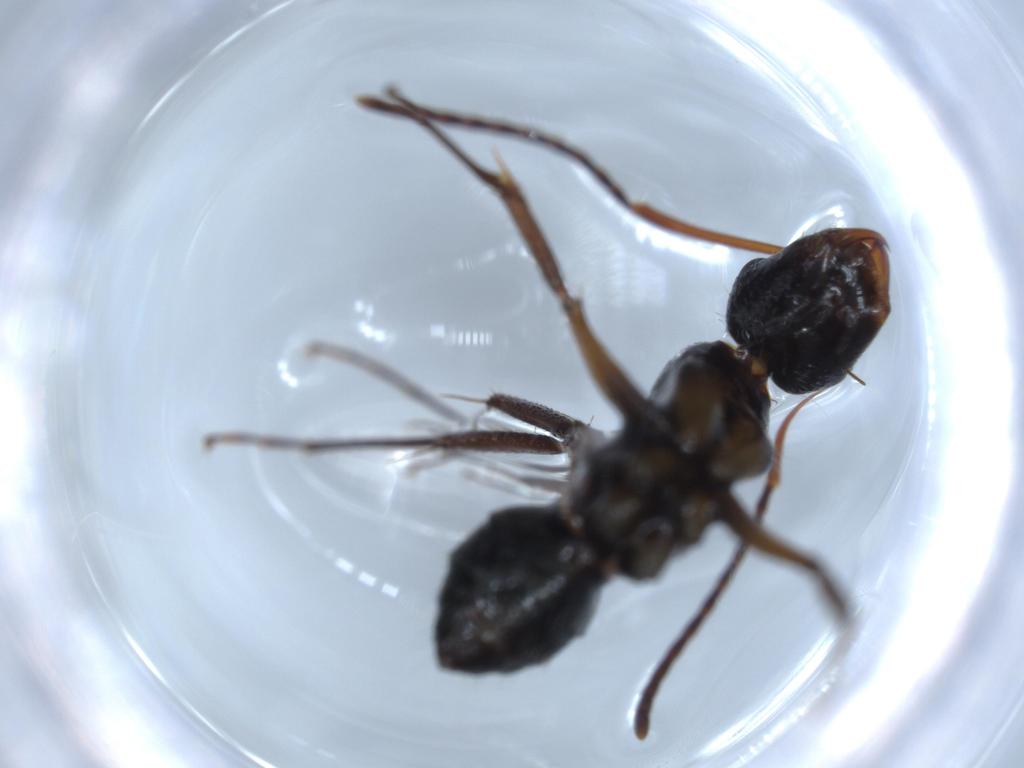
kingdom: Animalia
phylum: Arthropoda
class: Insecta
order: Hymenoptera
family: Formicidae
